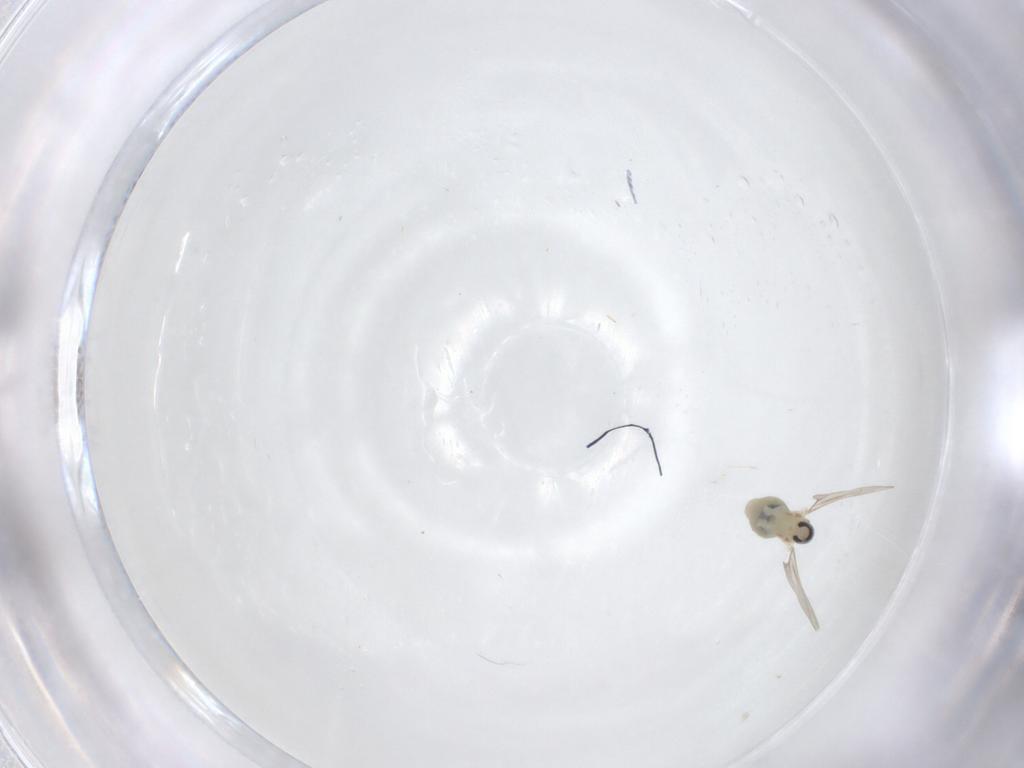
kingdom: Animalia
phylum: Arthropoda
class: Insecta
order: Diptera
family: Cecidomyiidae
